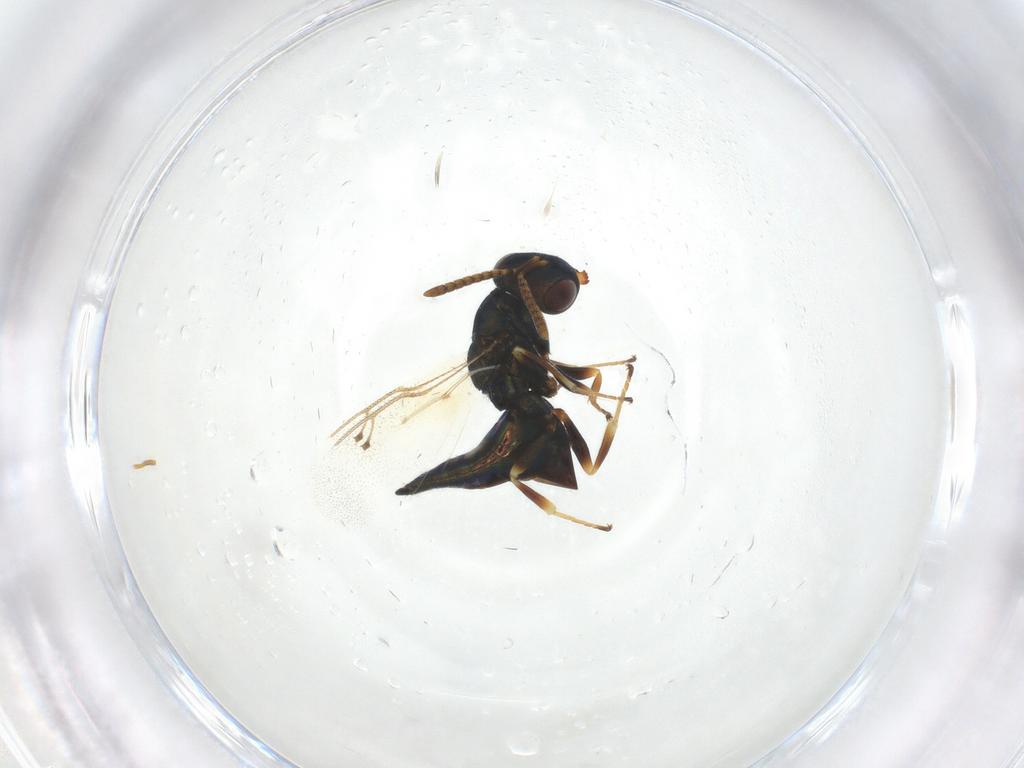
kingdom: Animalia
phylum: Arthropoda
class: Insecta
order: Hymenoptera
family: Pteromalidae
